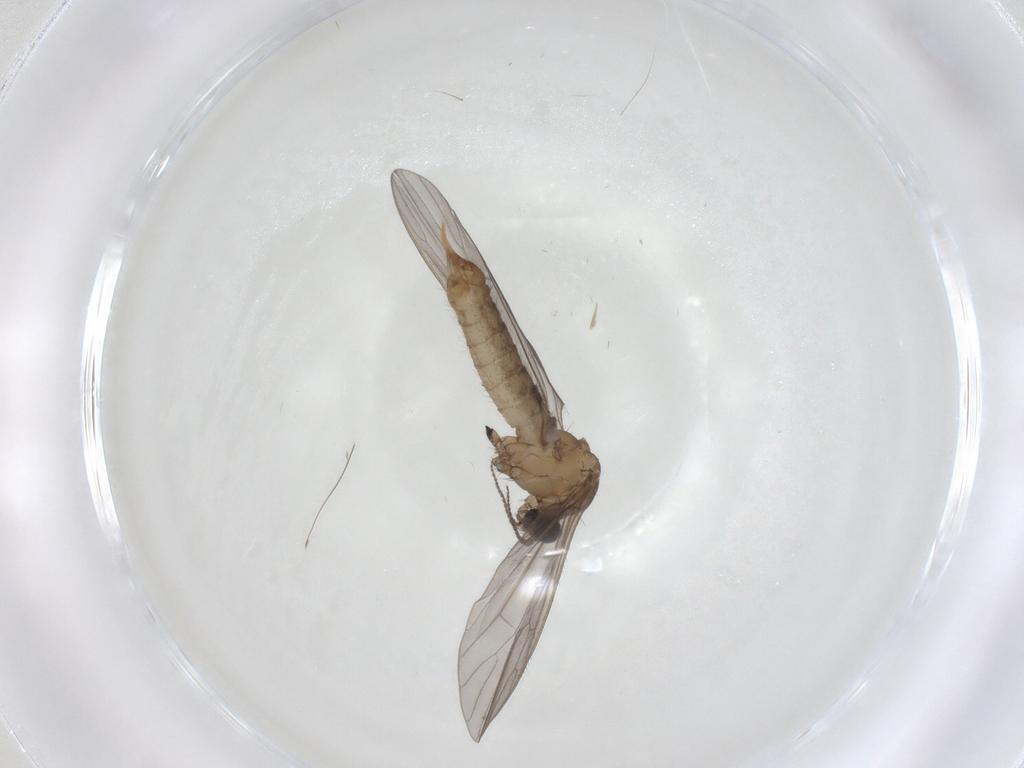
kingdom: Animalia
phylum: Arthropoda
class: Insecta
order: Diptera
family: Limoniidae
